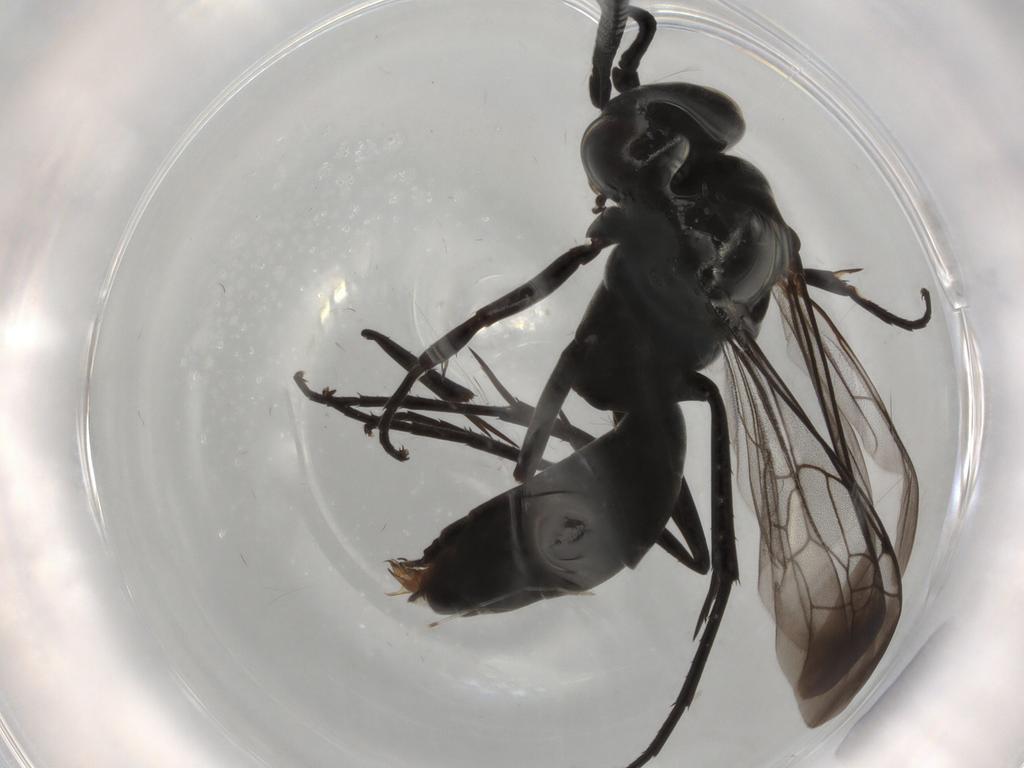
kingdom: Animalia
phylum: Arthropoda
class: Insecta
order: Hymenoptera
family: Pompilidae
